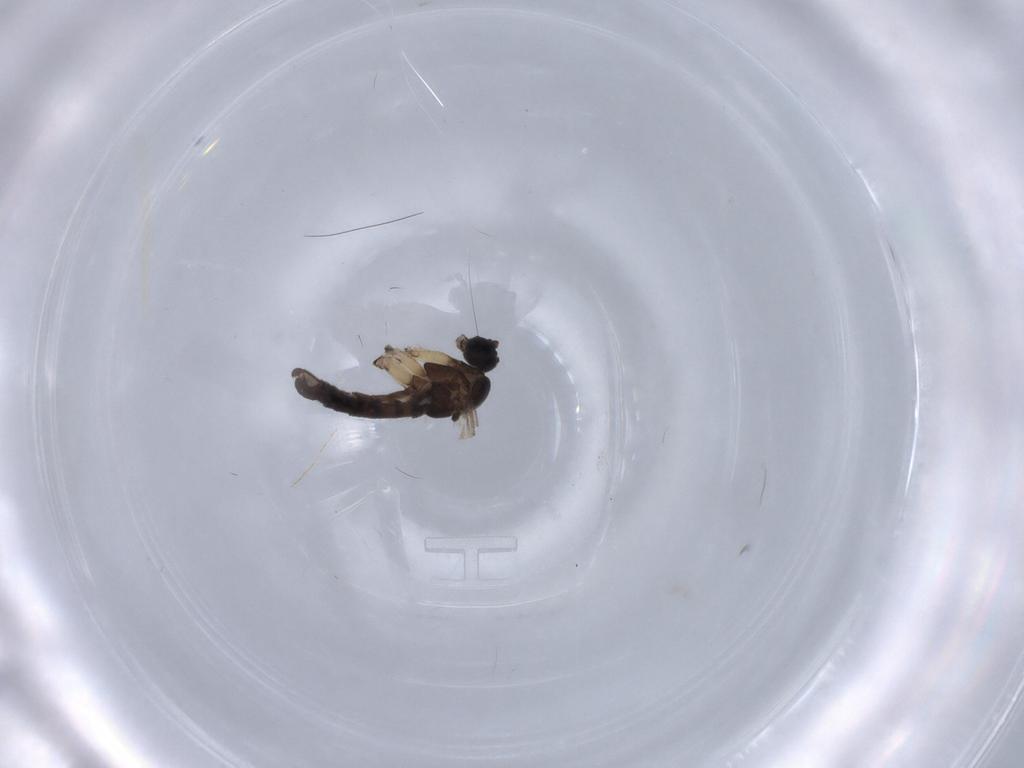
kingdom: Animalia
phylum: Arthropoda
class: Insecta
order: Diptera
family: Sciaridae
